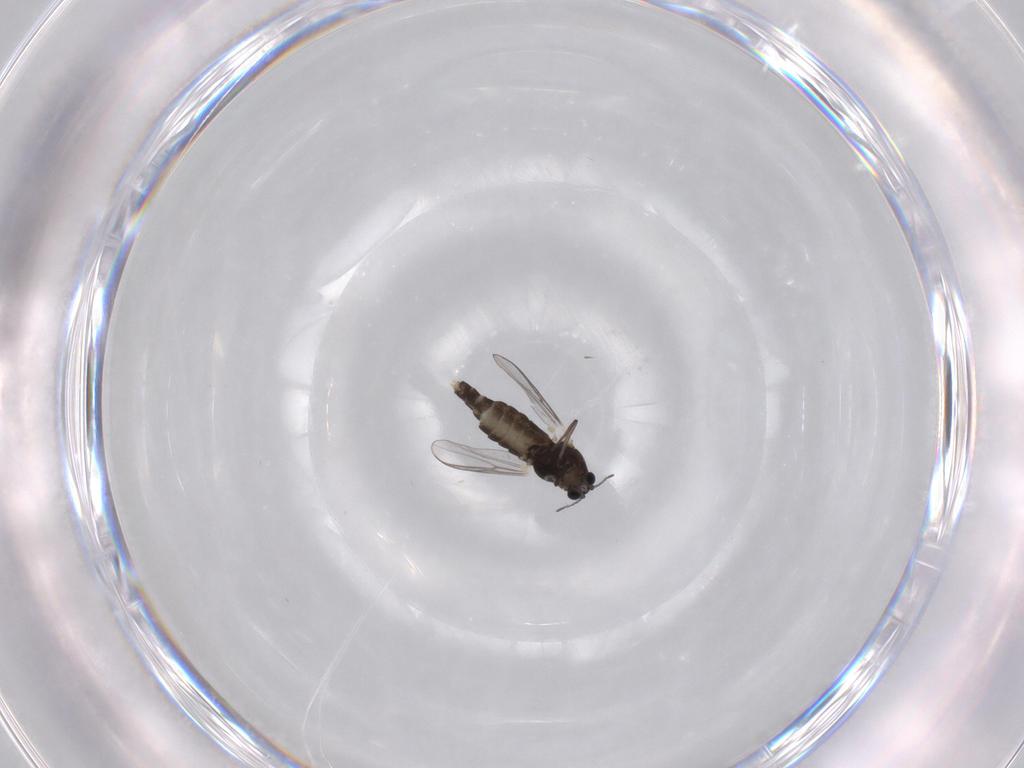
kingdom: Animalia
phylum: Arthropoda
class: Insecta
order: Diptera
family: Chironomidae
